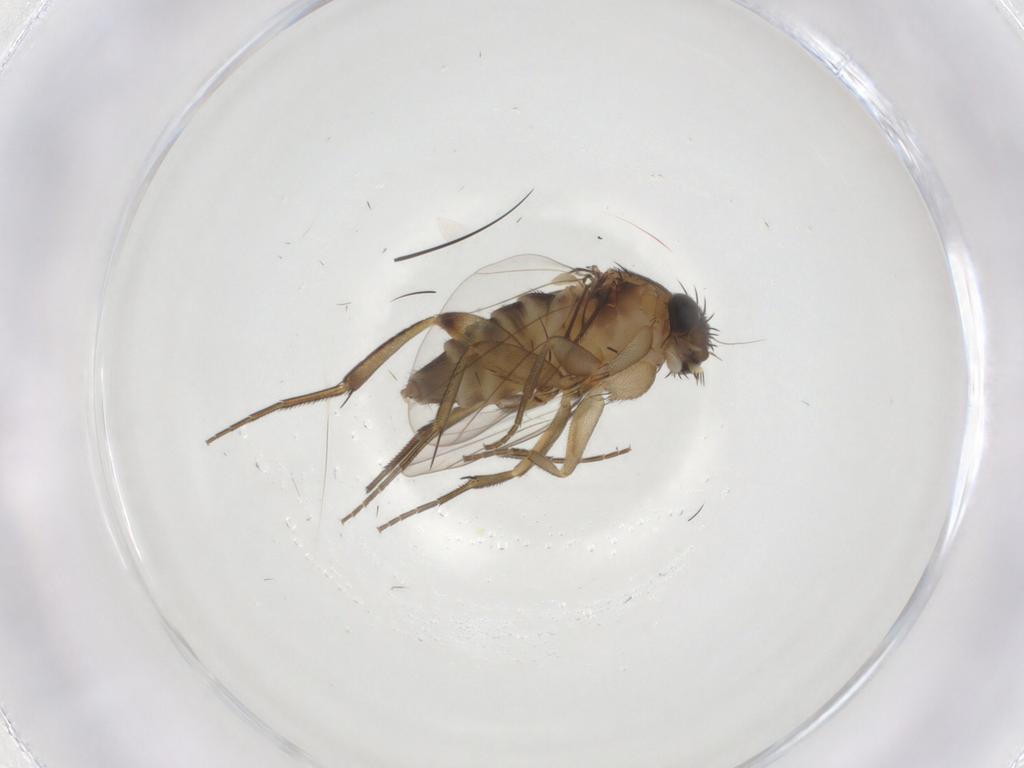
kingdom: Animalia
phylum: Arthropoda
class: Insecta
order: Diptera
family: Phoridae
